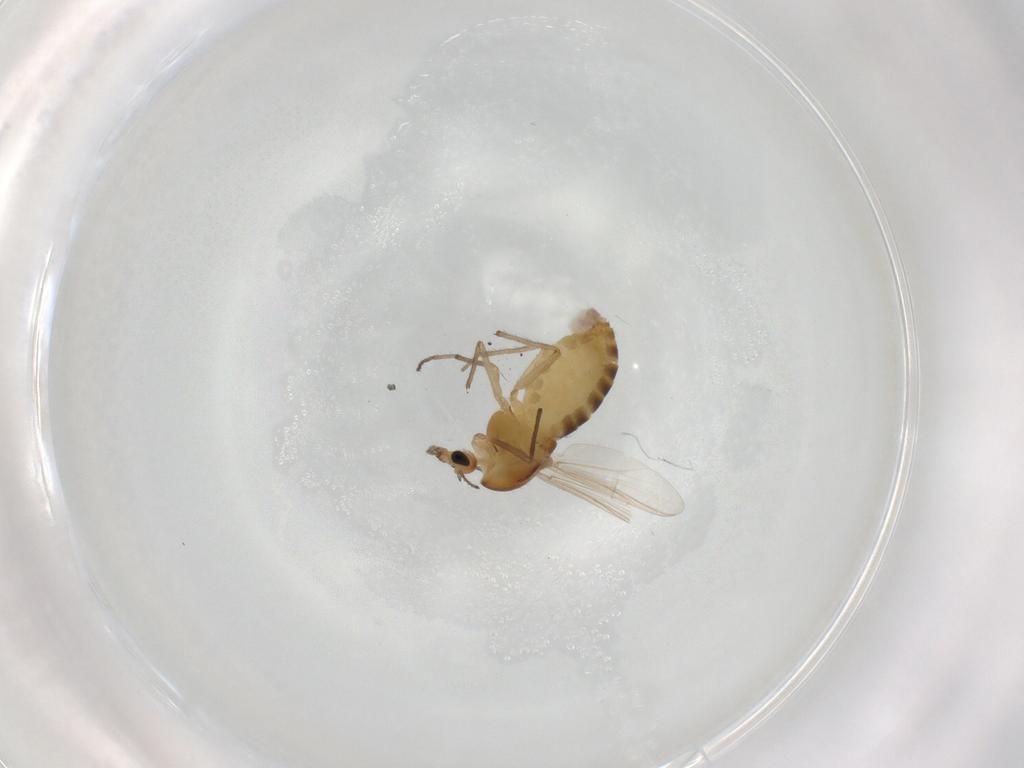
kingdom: Animalia
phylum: Arthropoda
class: Insecta
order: Diptera
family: Chironomidae
